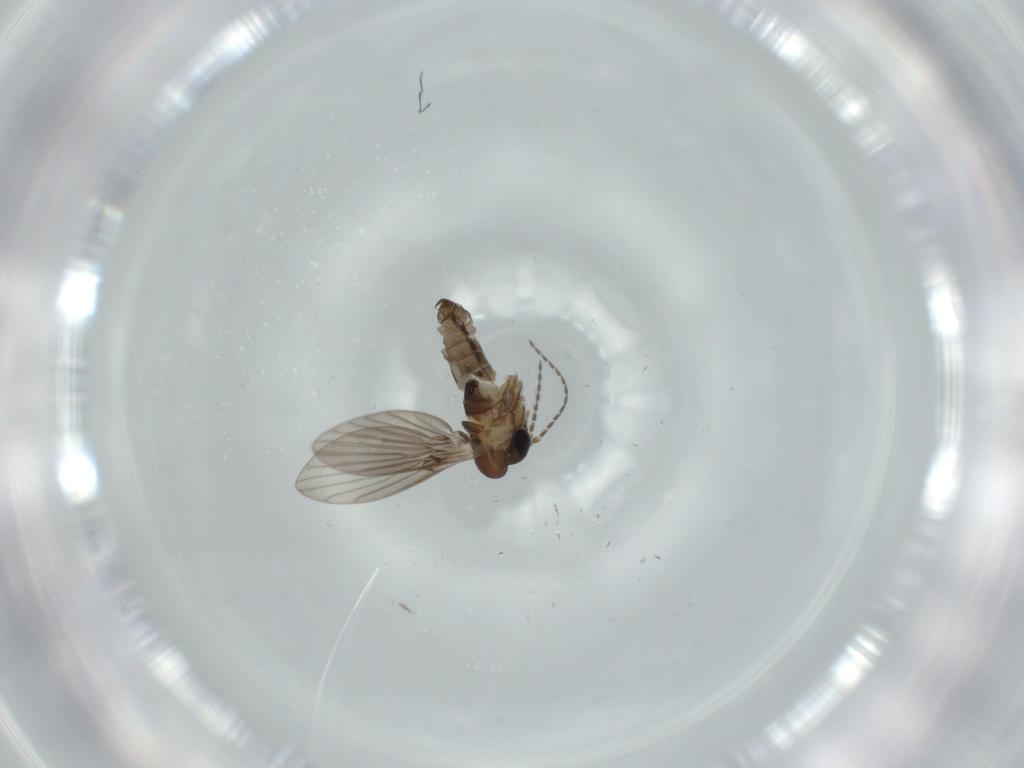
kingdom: Animalia
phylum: Arthropoda
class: Insecta
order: Diptera
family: Psychodidae
